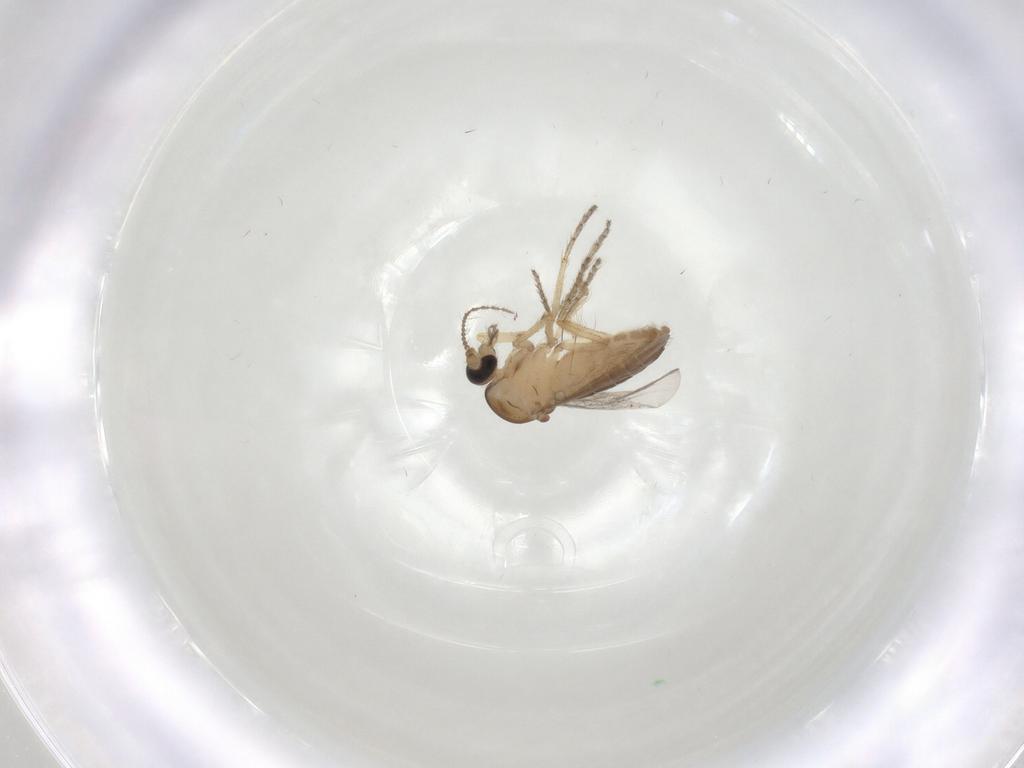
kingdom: Animalia
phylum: Arthropoda
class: Insecta
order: Diptera
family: Ceratopogonidae
